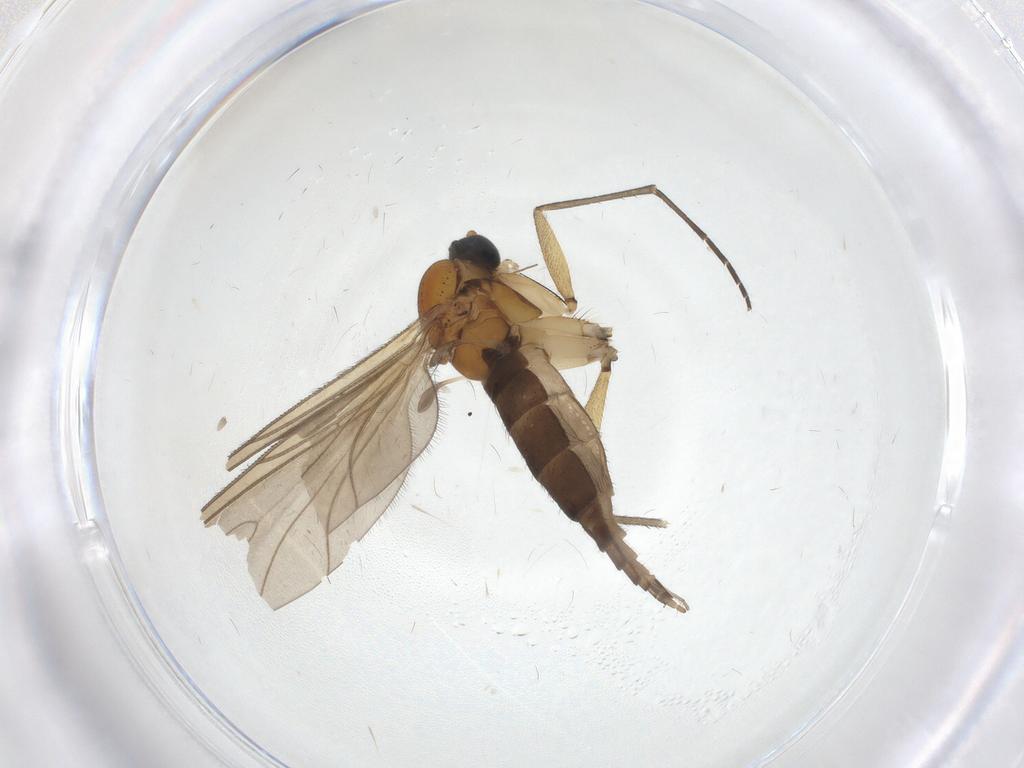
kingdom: Animalia
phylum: Arthropoda
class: Insecta
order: Diptera
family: Sciaridae
